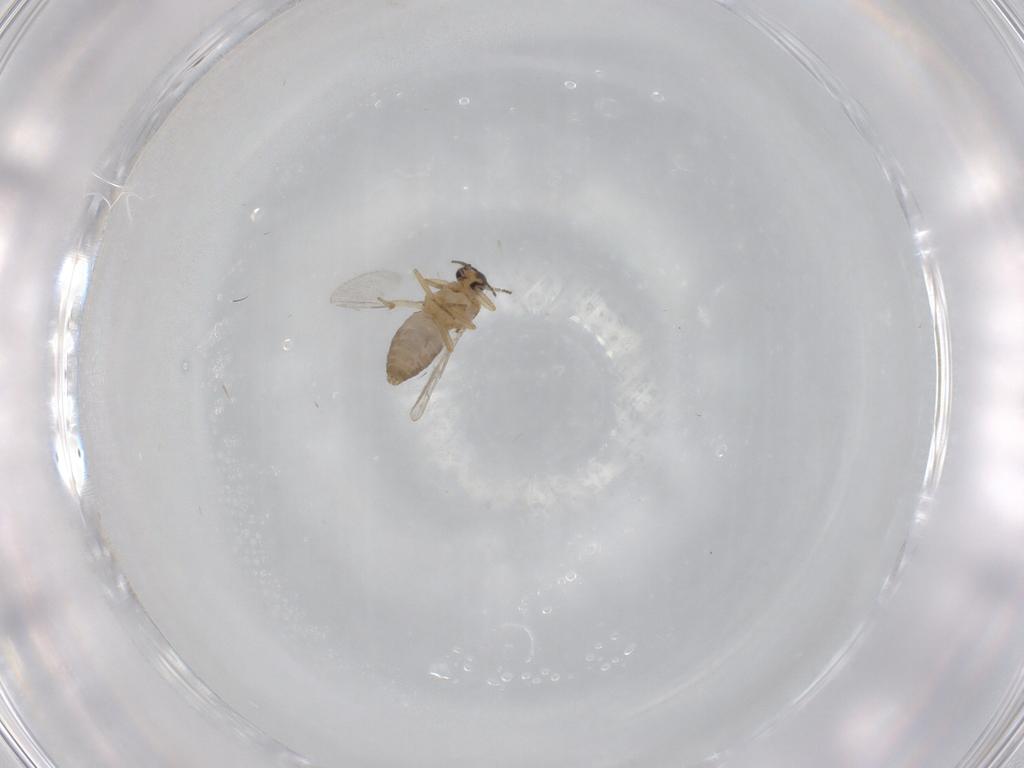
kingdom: Animalia
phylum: Arthropoda
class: Insecta
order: Diptera
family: Ceratopogonidae
